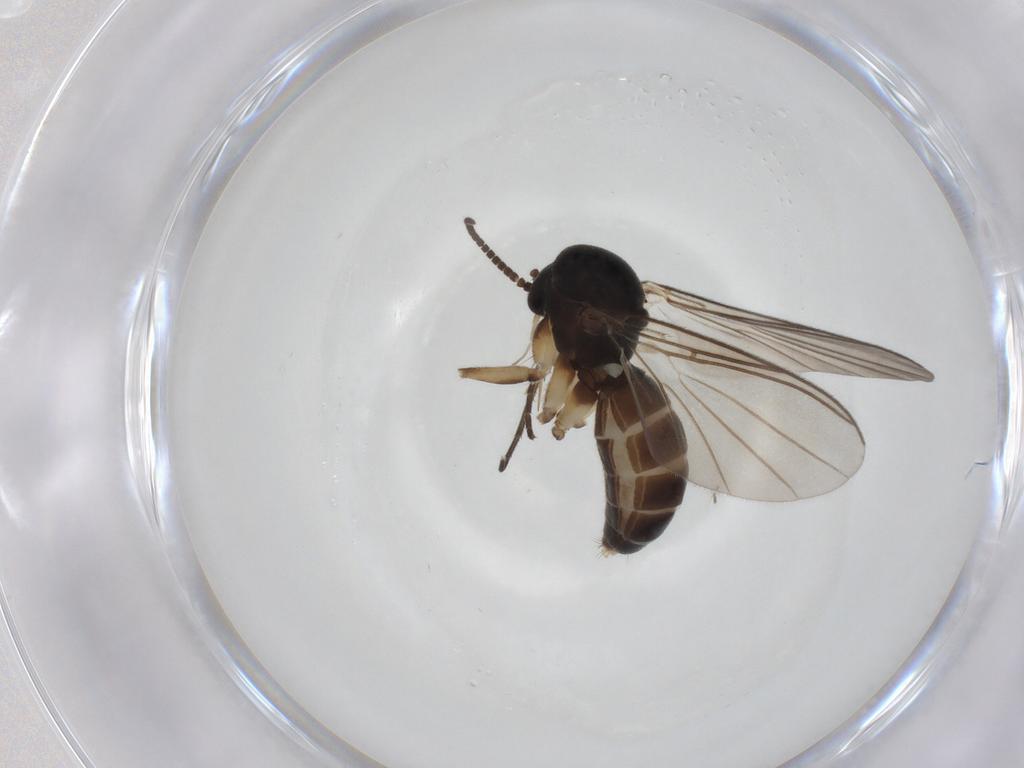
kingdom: Animalia
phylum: Arthropoda
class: Insecta
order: Diptera
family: Mycetophilidae
